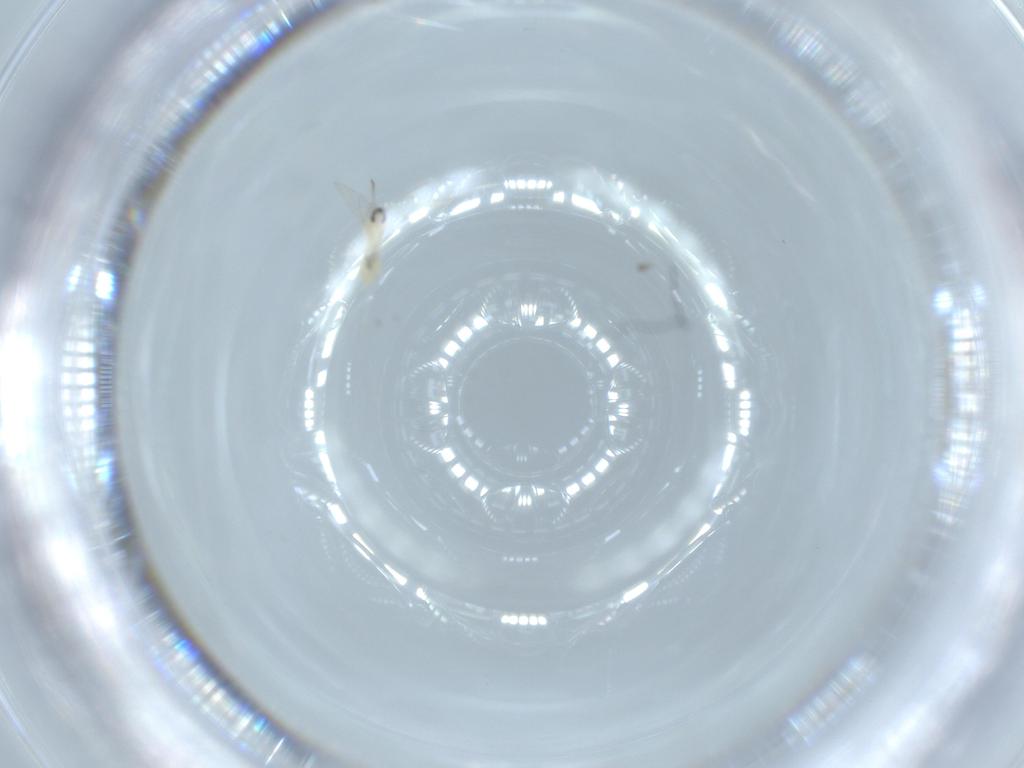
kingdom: Animalia
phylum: Arthropoda
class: Insecta
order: Diptera
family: Cecidomyiidae
